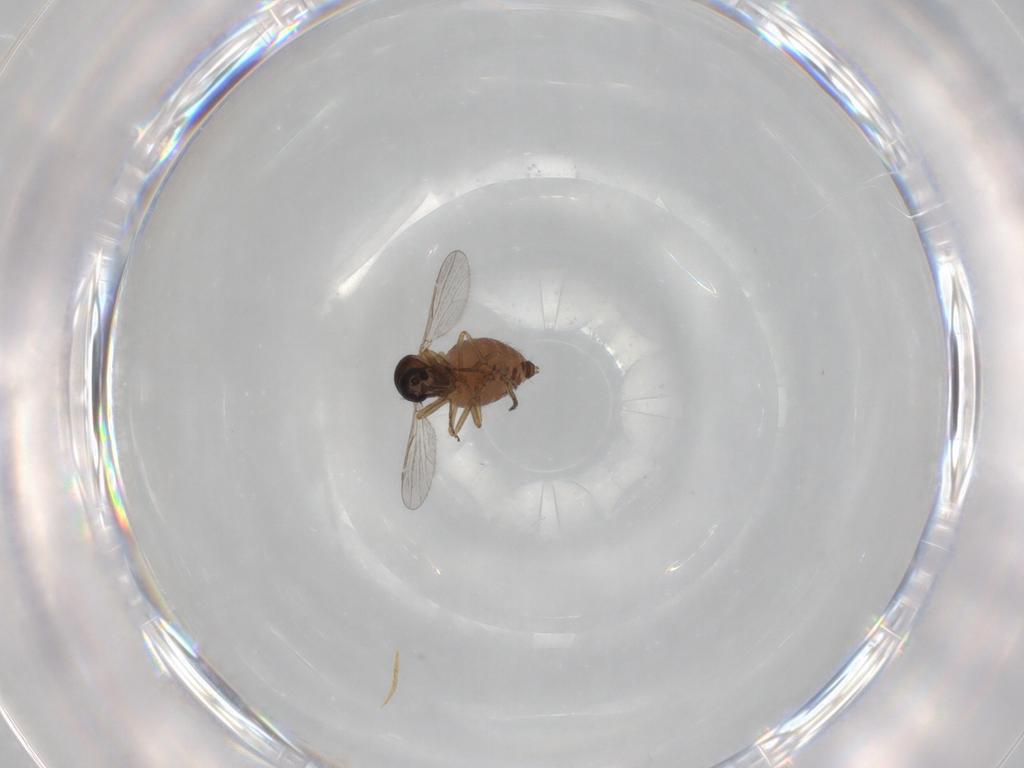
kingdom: Animalia
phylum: Arthropoda
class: Insecta
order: Diptera
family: Ceratopogonidae
